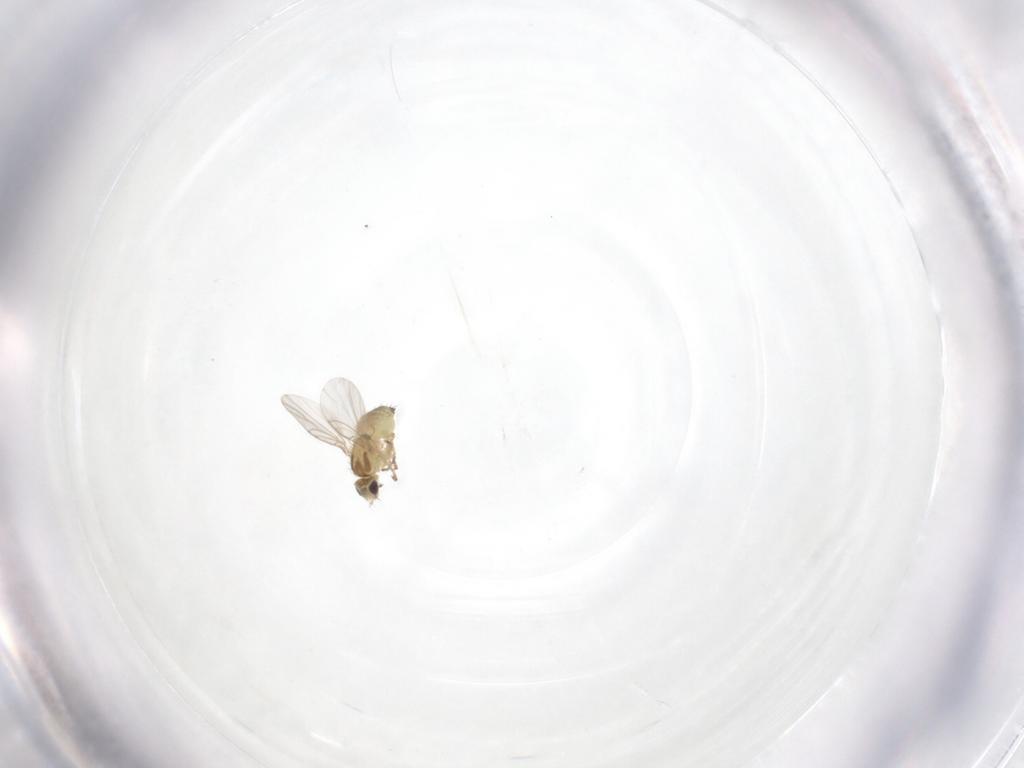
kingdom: Animalia
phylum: Arthropoda
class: Insecta
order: Diptera
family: Agromyzidae
